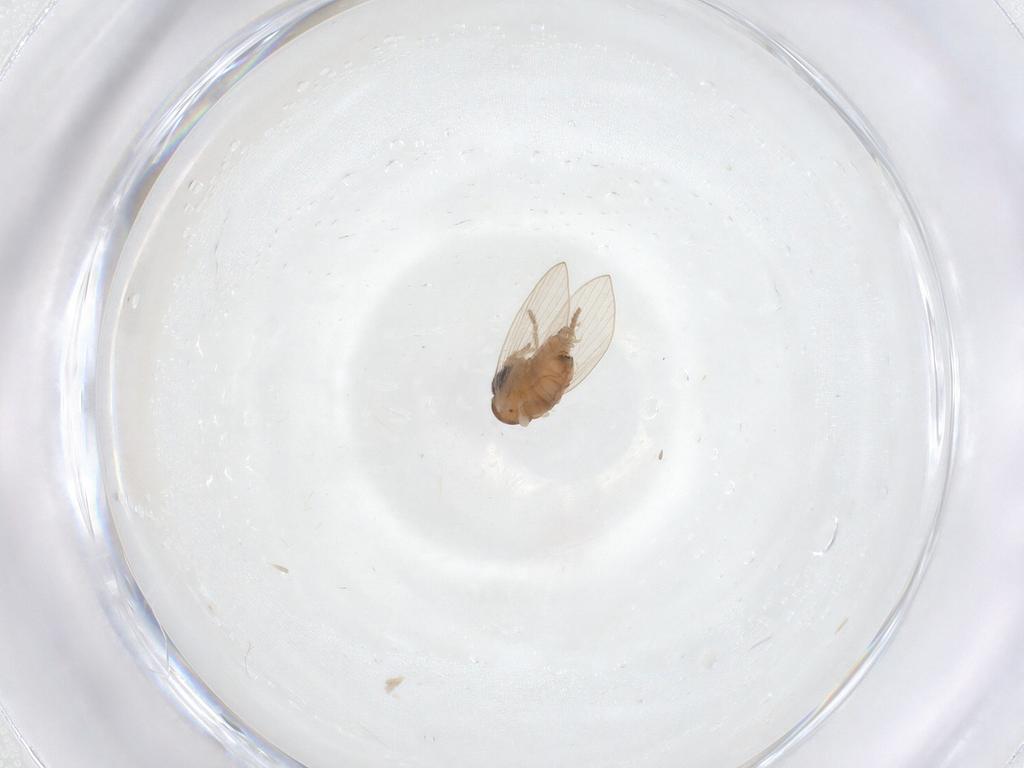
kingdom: Animalia
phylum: Arthropoda
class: Insecta
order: Diptera
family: Psychodidae
